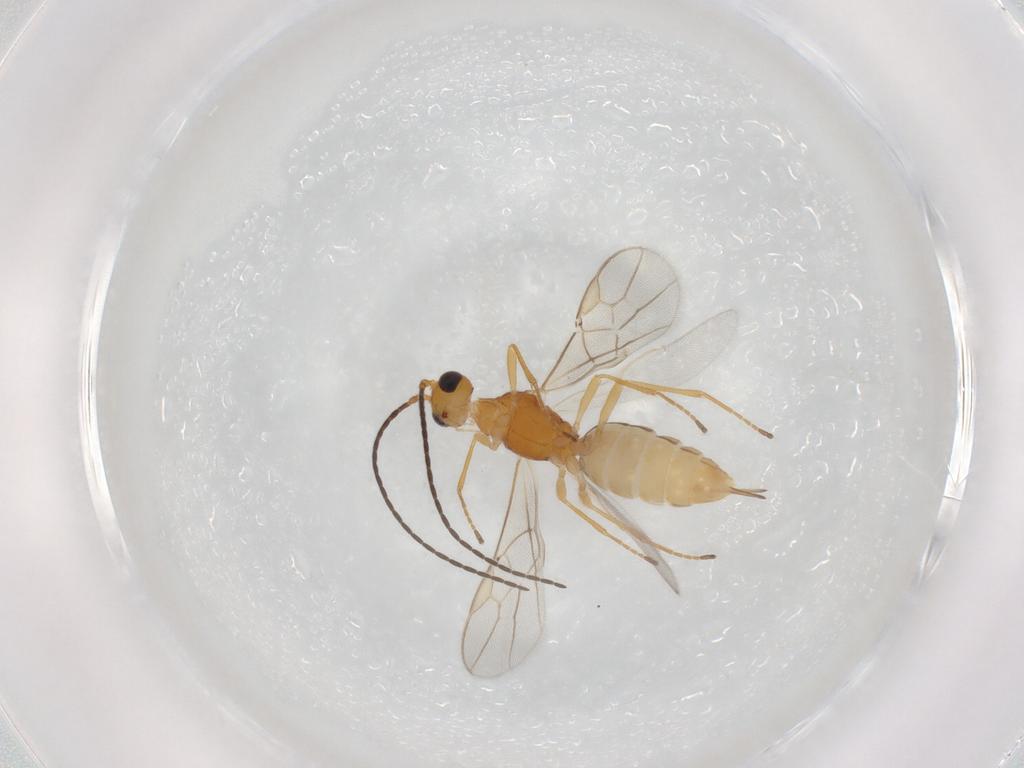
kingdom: Animalia
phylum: Arthropoda
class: Insecta
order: Hymenoptera
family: Braconidae
